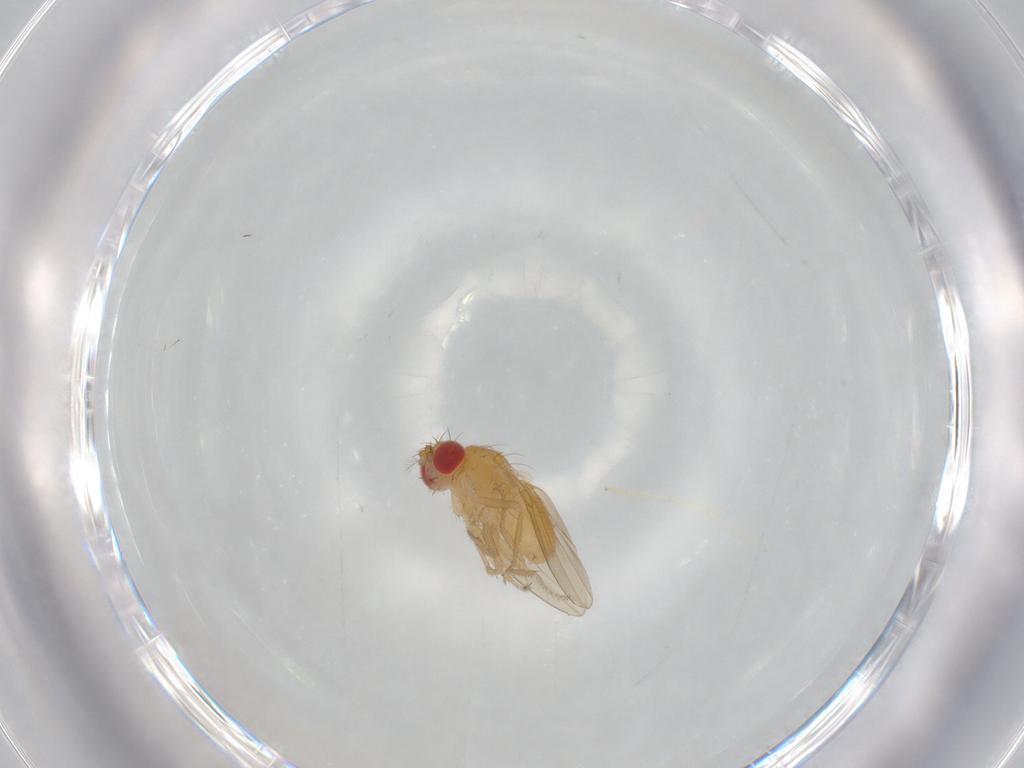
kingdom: Animalia
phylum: Arthropoda
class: Insecta
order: Diptera
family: Drosophilidae
